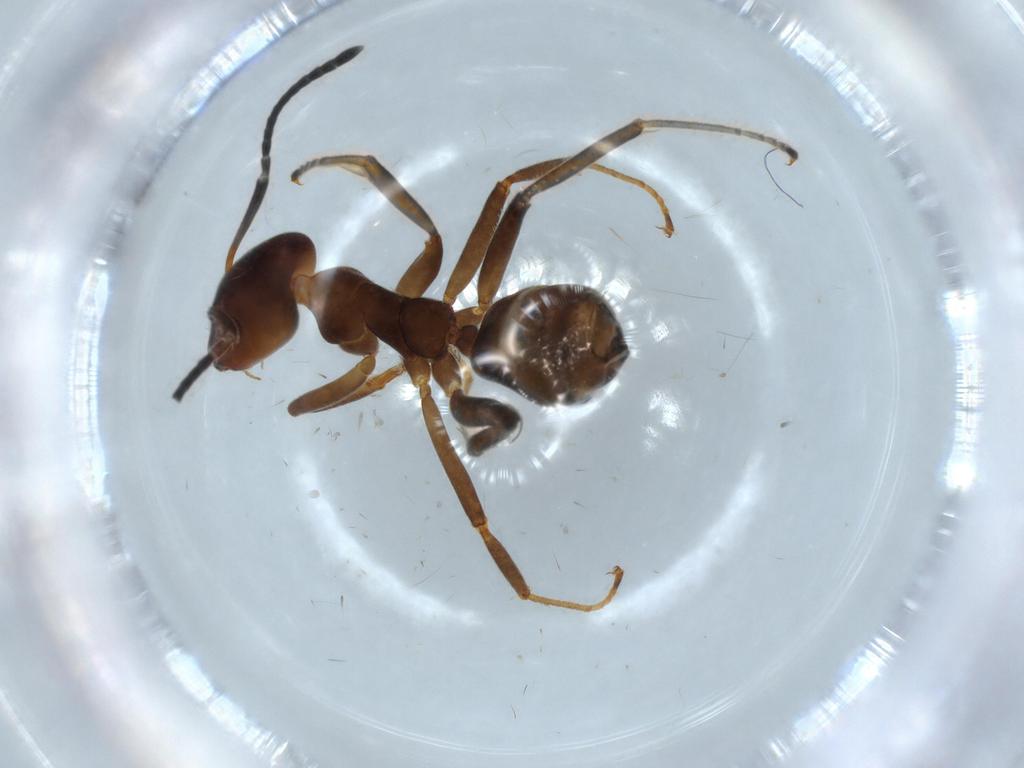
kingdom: Animalia
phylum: Arthropoda
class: Insecta
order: Hymenoptera
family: Formicidae
